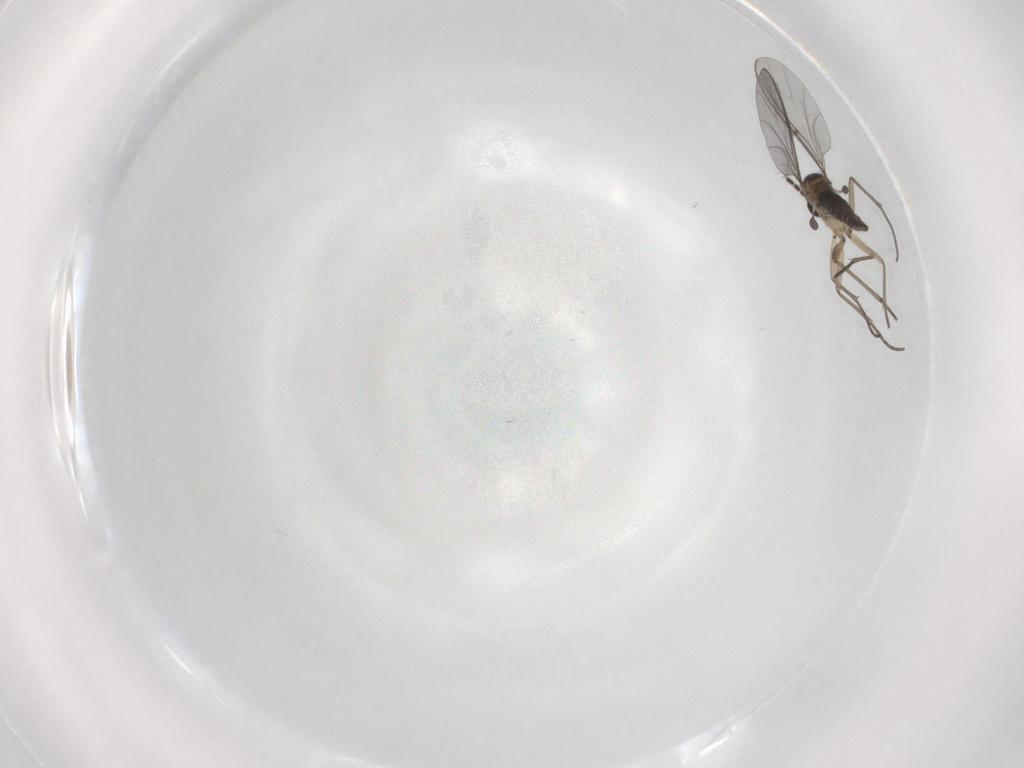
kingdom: Animalia
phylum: Arthropoda
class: Insecta
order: Diptera
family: Sciaridae
